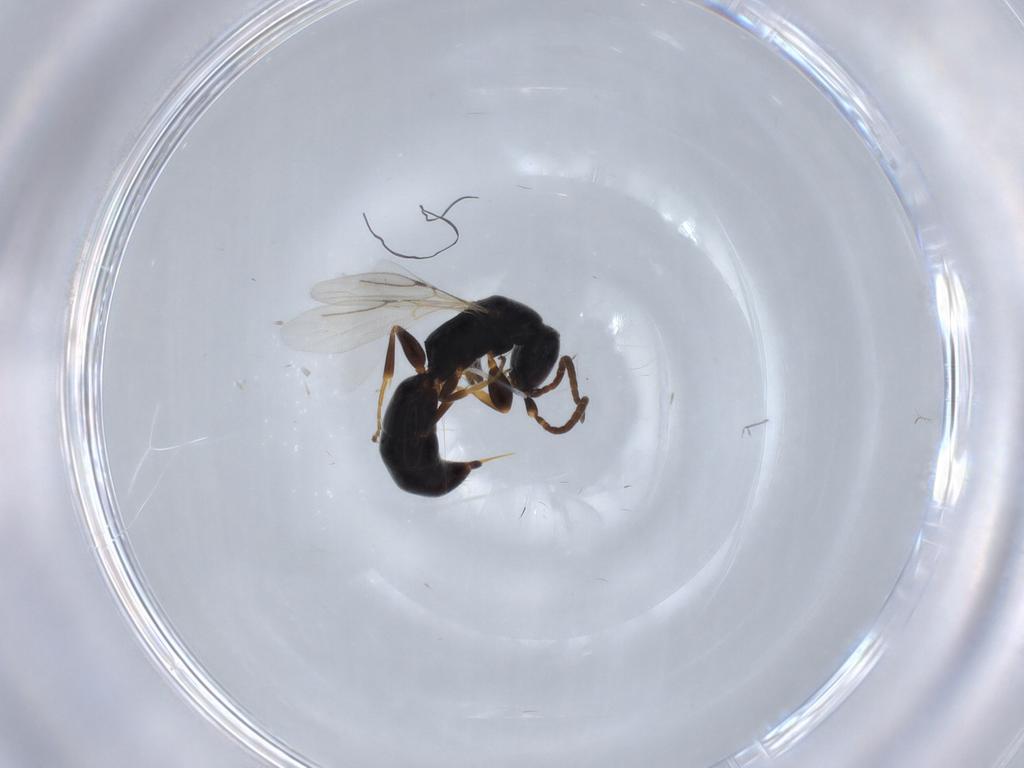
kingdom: Animalia
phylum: Arthropoda
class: Insecta
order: Hymenoptera
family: Bethylidae
